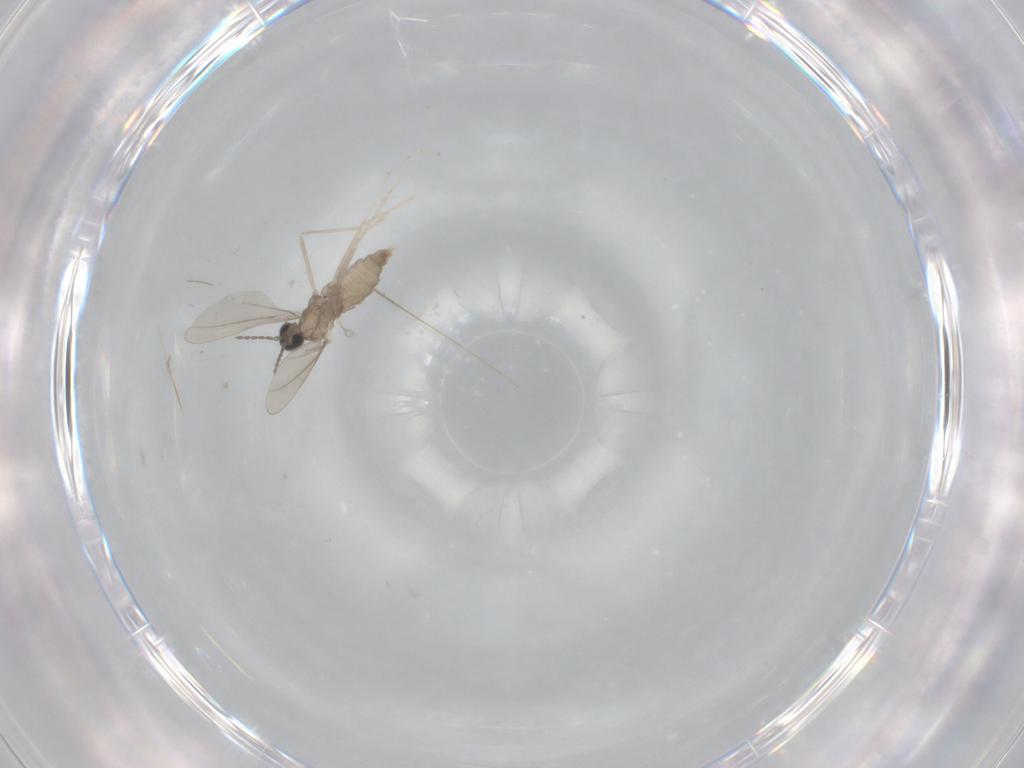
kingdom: Animalia
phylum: Arthropoda
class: Insecta
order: Diptera
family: Cecidomyiidae
